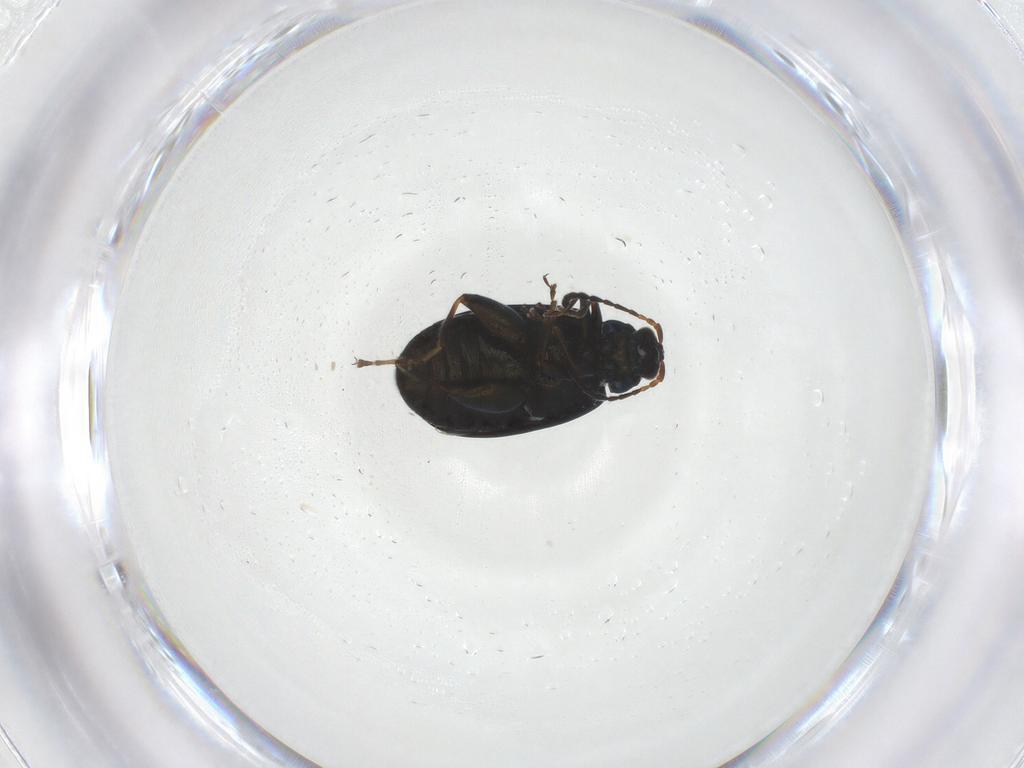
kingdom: Animalia
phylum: Arthropoda
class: Insecta
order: Coleoptera
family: Chrysomelidae
